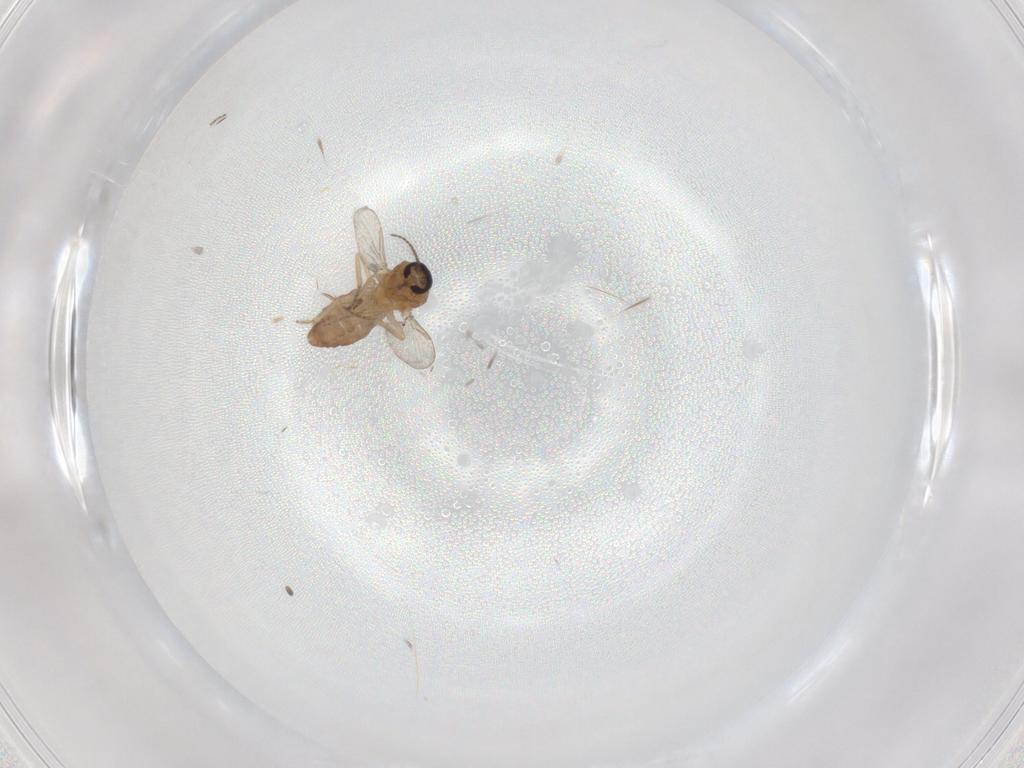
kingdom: Animalia
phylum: Arthropoda
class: Insecta
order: Diptera
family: Ceratopogonidae
